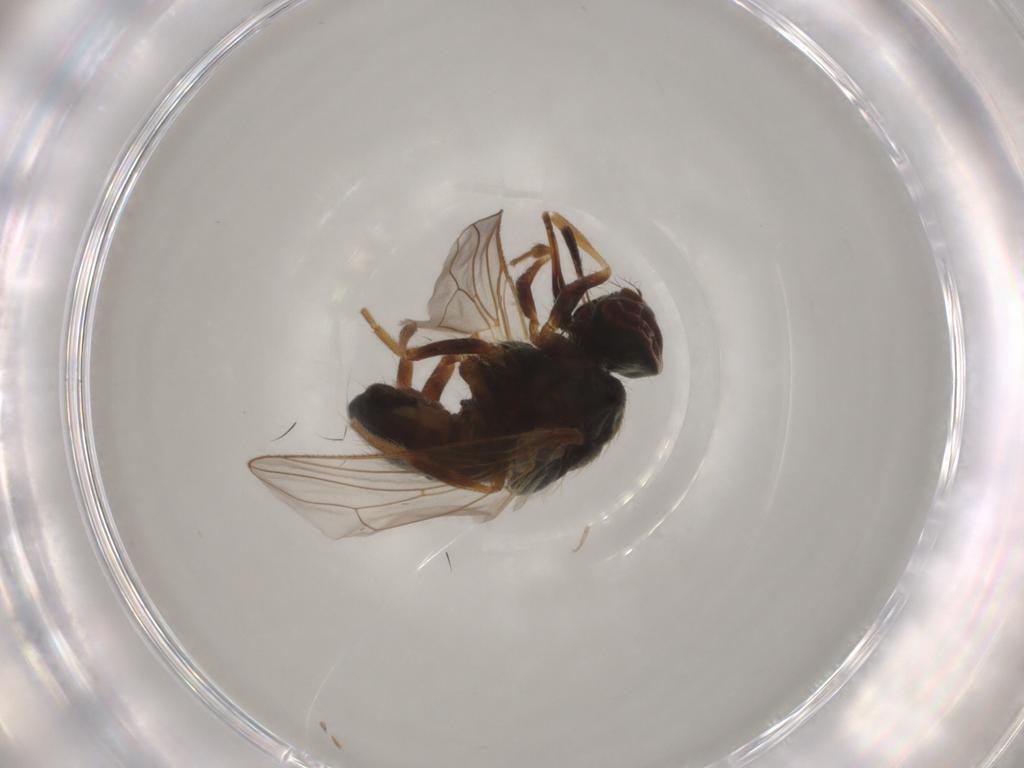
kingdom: Animalia
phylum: Arthropoda
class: Insecta
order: Diptera
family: Muscidae
